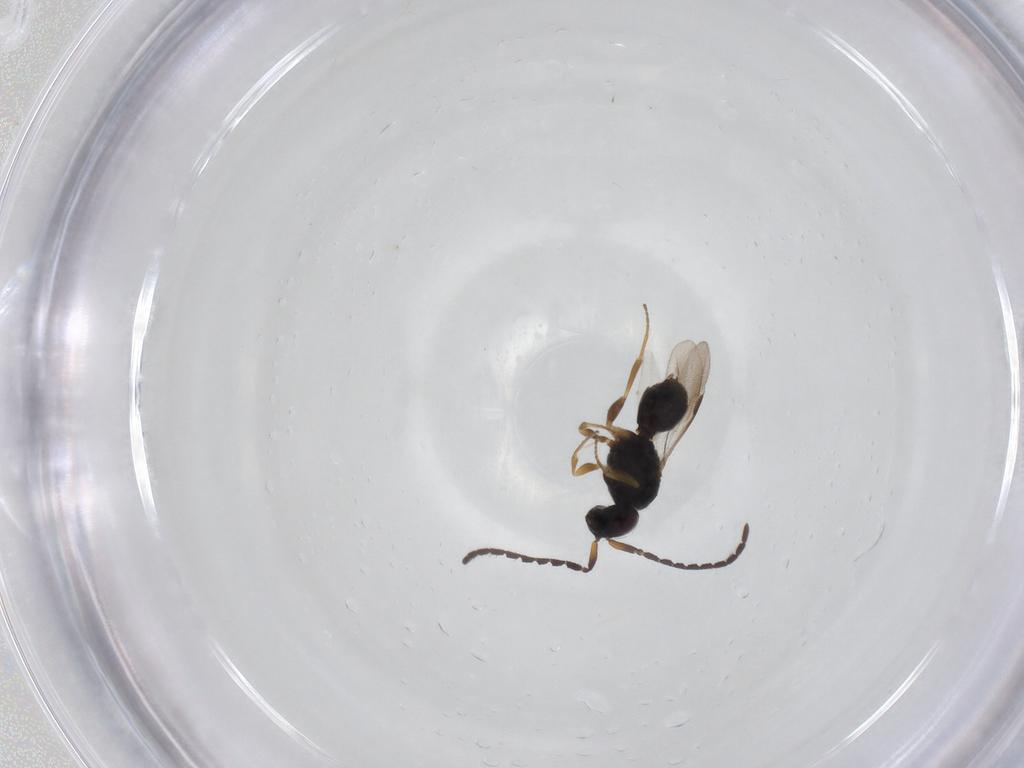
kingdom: Animalia
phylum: Arthropoda
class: Insecta
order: Hymenoptera
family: Megaspilidae
